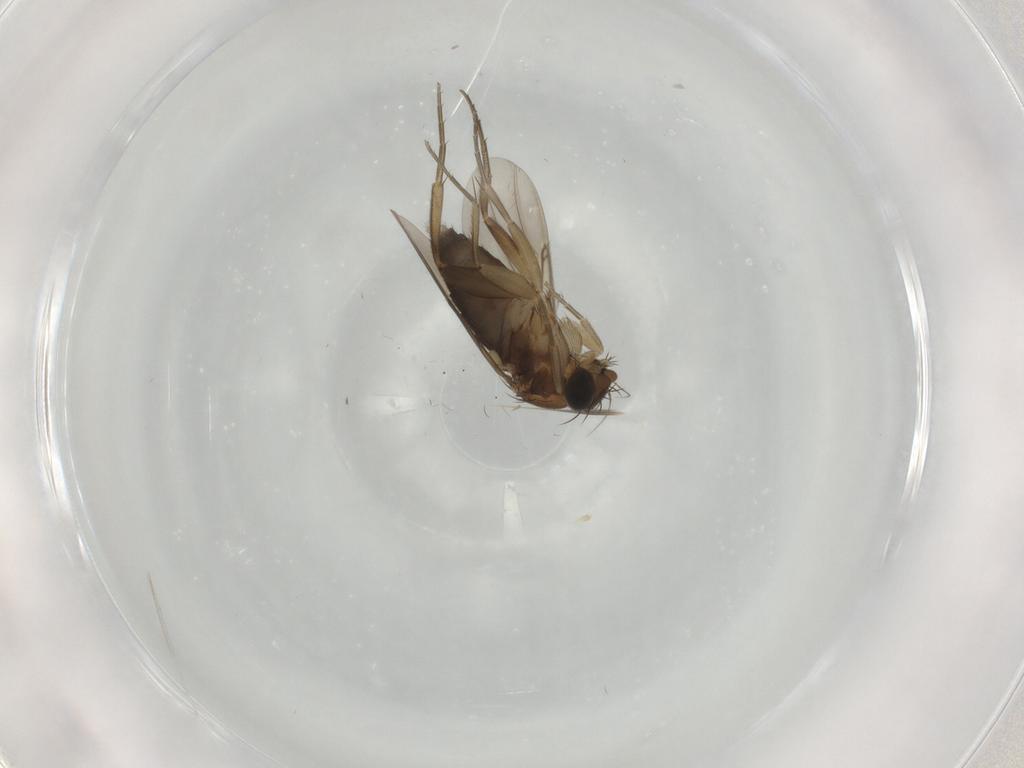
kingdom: Animalia
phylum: Arthropoda
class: Insecta
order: Diptera
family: Phoridae
